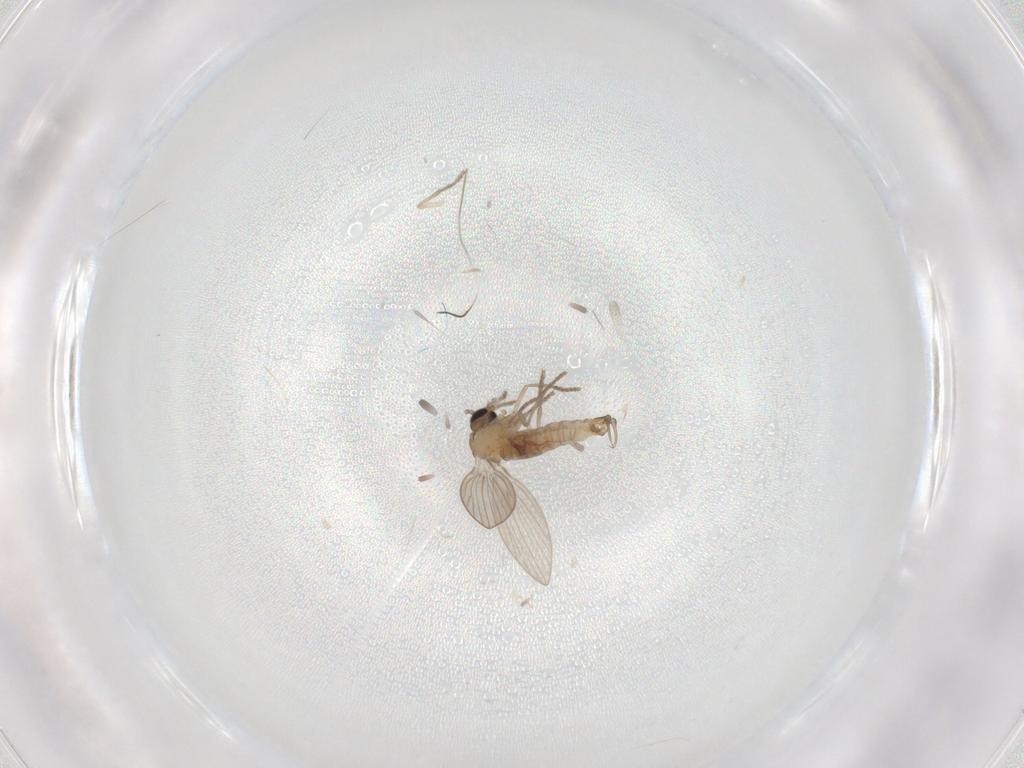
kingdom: Animalia
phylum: Arthropoda
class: Insecta
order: Diptera
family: Psychodidae
